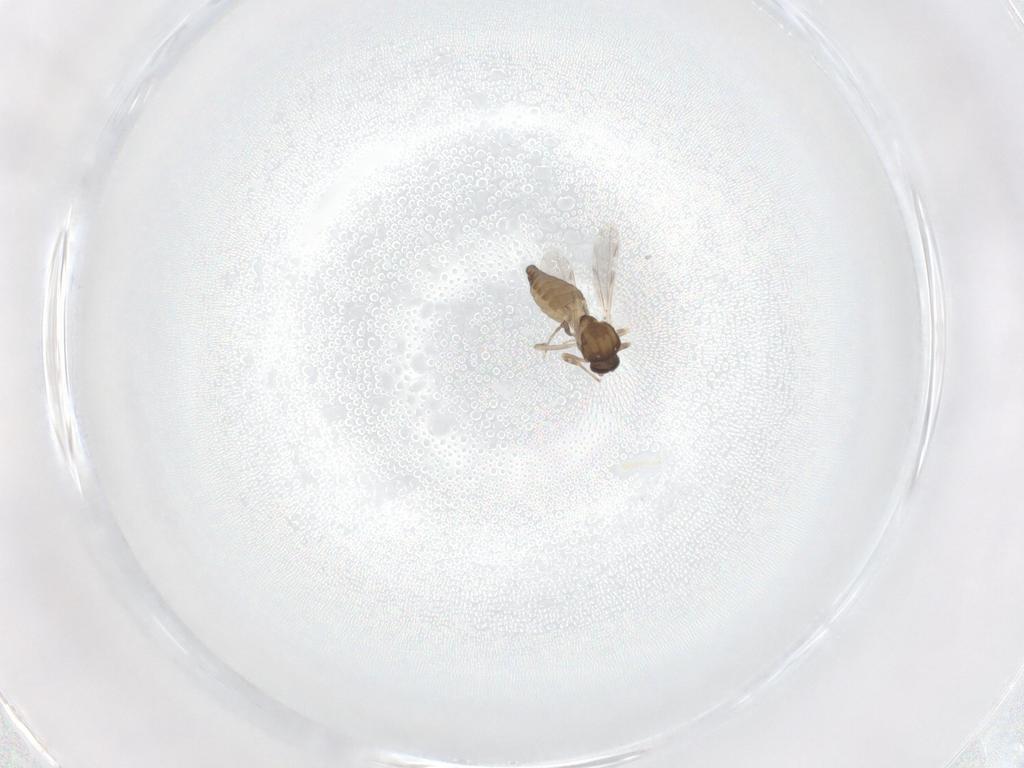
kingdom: Animalia
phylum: Arthropoda
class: Insecta
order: Diptera
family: Ceratopogonidae
